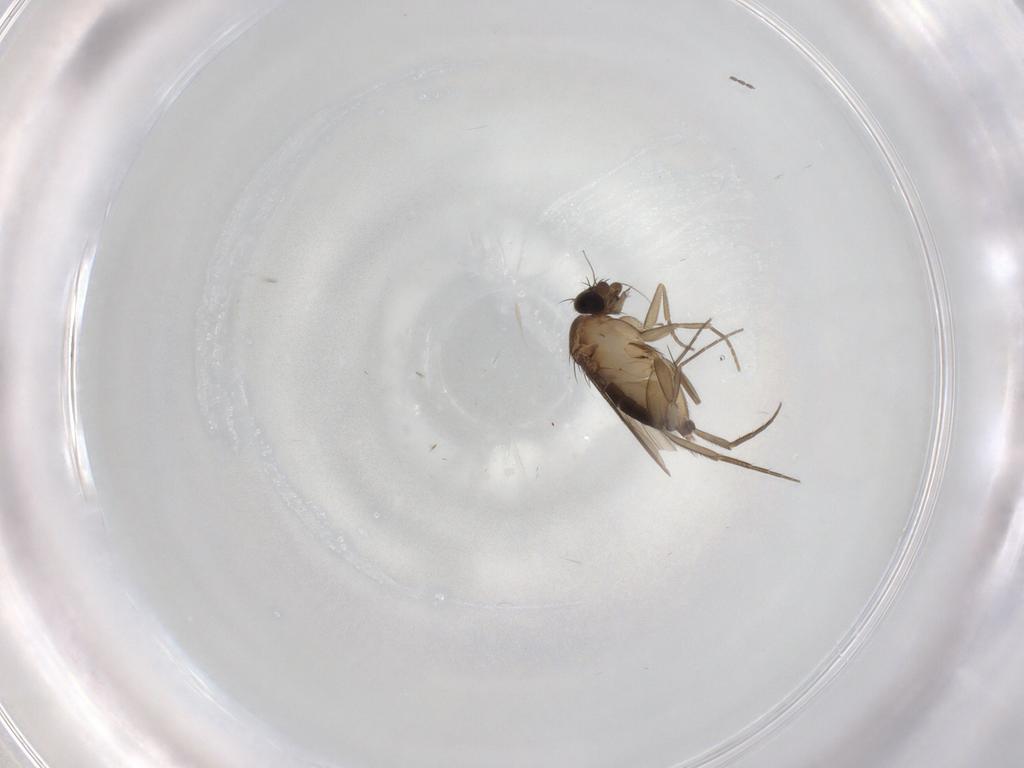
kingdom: Animalia
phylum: Arthropoda
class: Insecta
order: Diptera
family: Phoridae
